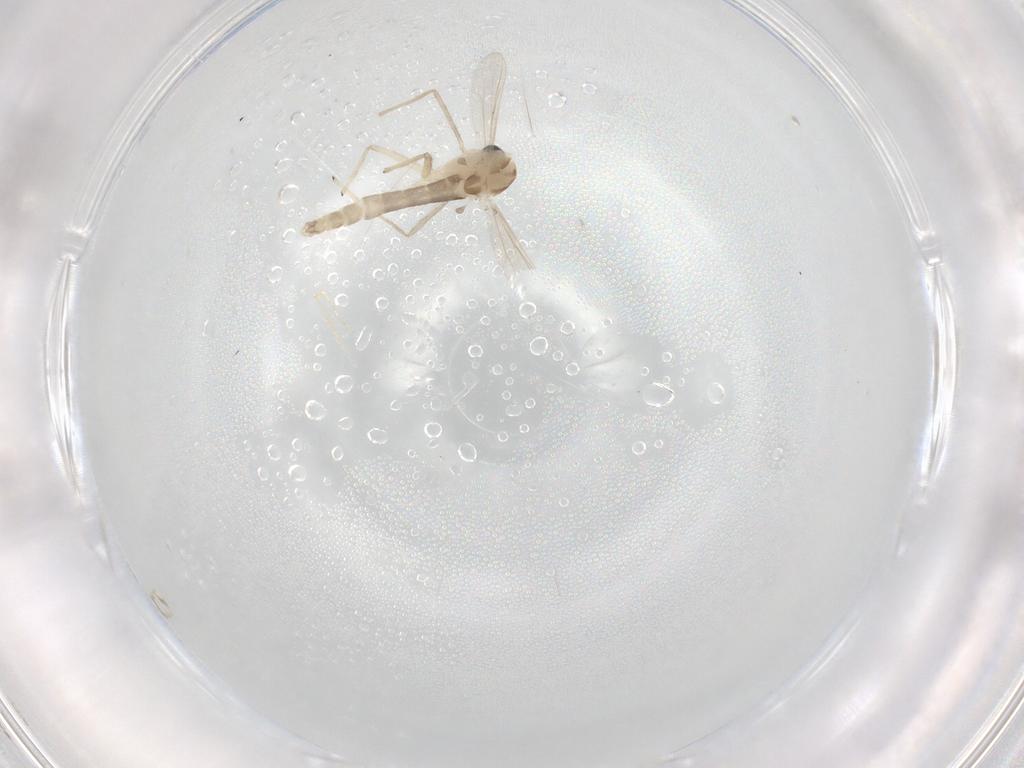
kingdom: Animalia
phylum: Arthropoda
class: Insecta
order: Diptera
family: Chironomidae
